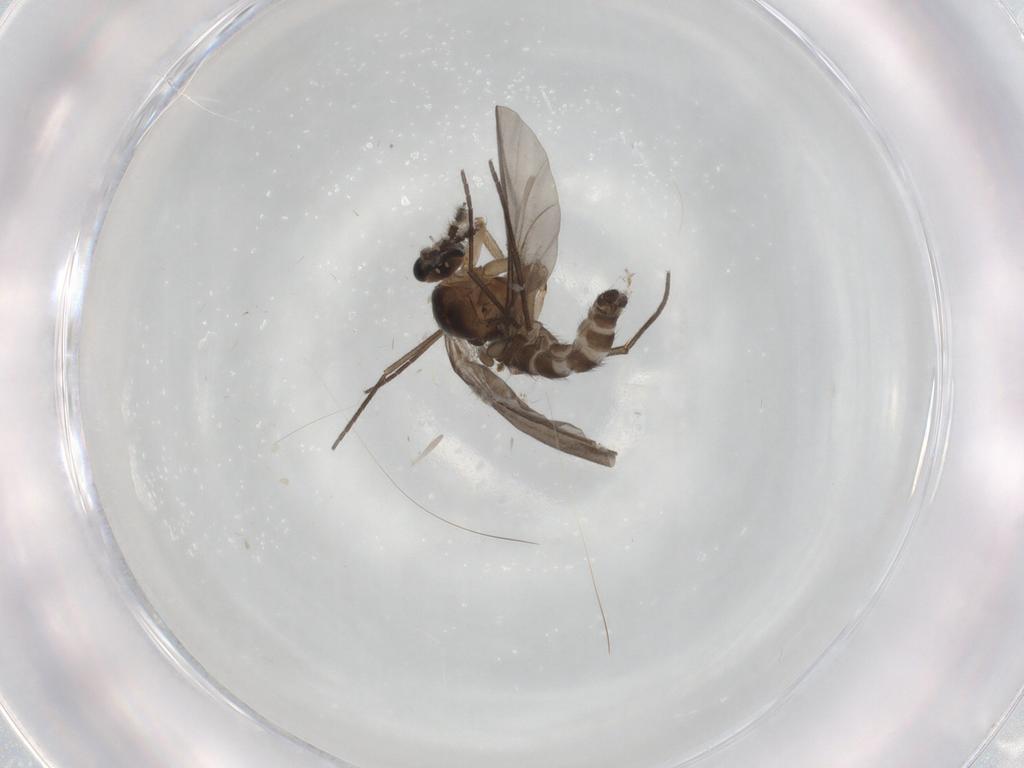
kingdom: Animalia
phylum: Arthropoda
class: Insecta
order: Diptera
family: Sciaridae
